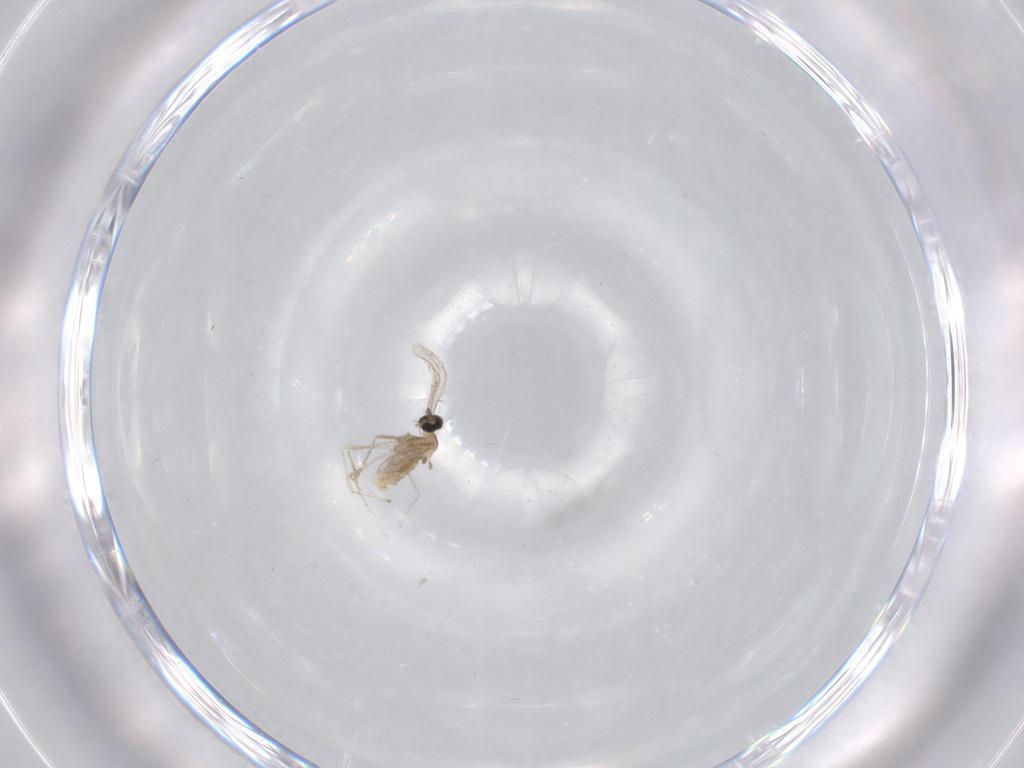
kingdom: Animalia
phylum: Arthropoda
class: Insecta
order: Diptera
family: Cecidomyiidae
